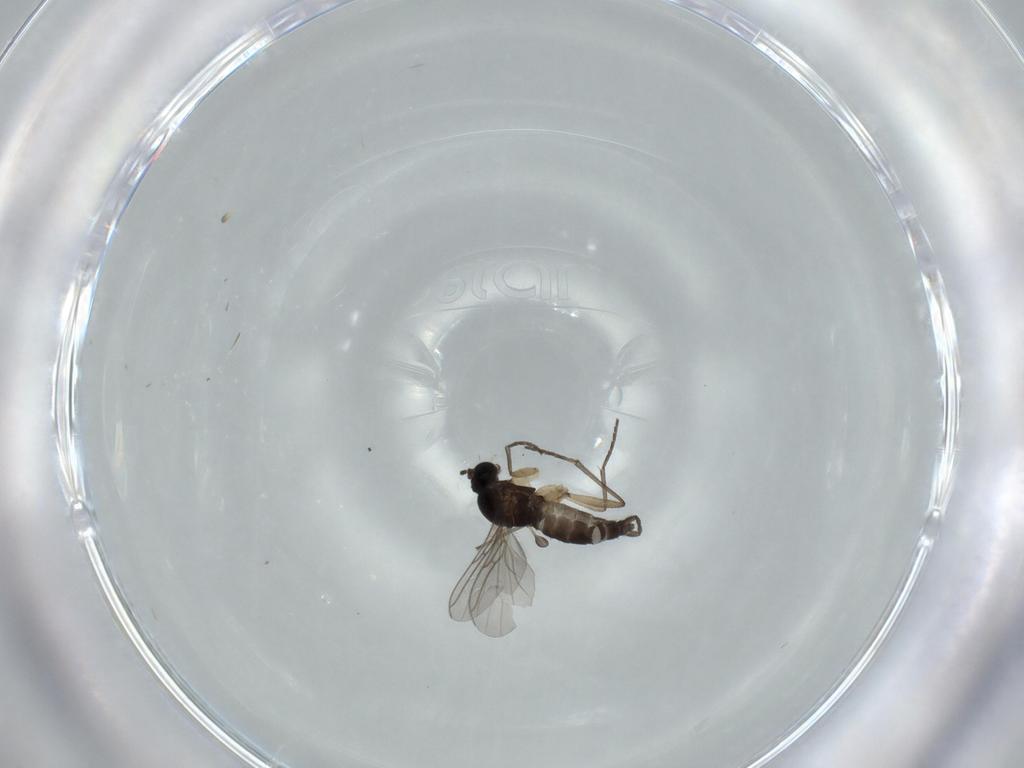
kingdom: Animalia
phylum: Arthropoda
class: Insecta
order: Diptera
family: Sciaridae
